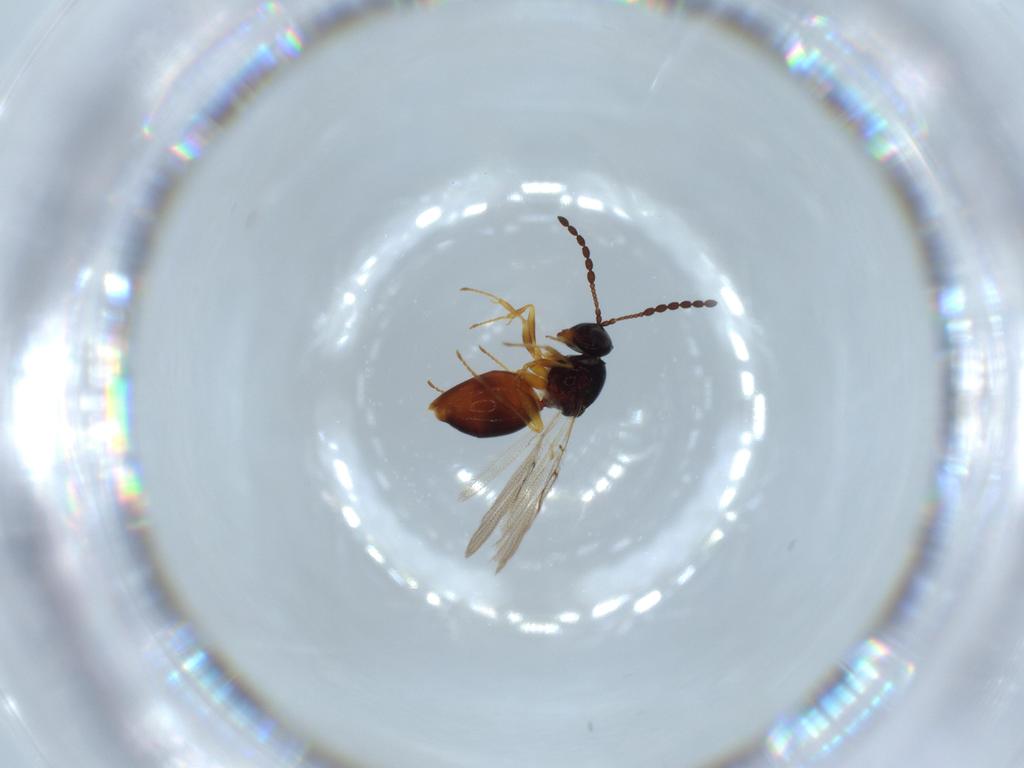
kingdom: Animalia
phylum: Arthropoda
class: Insecta
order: Hymenoptera
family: Figitidae
